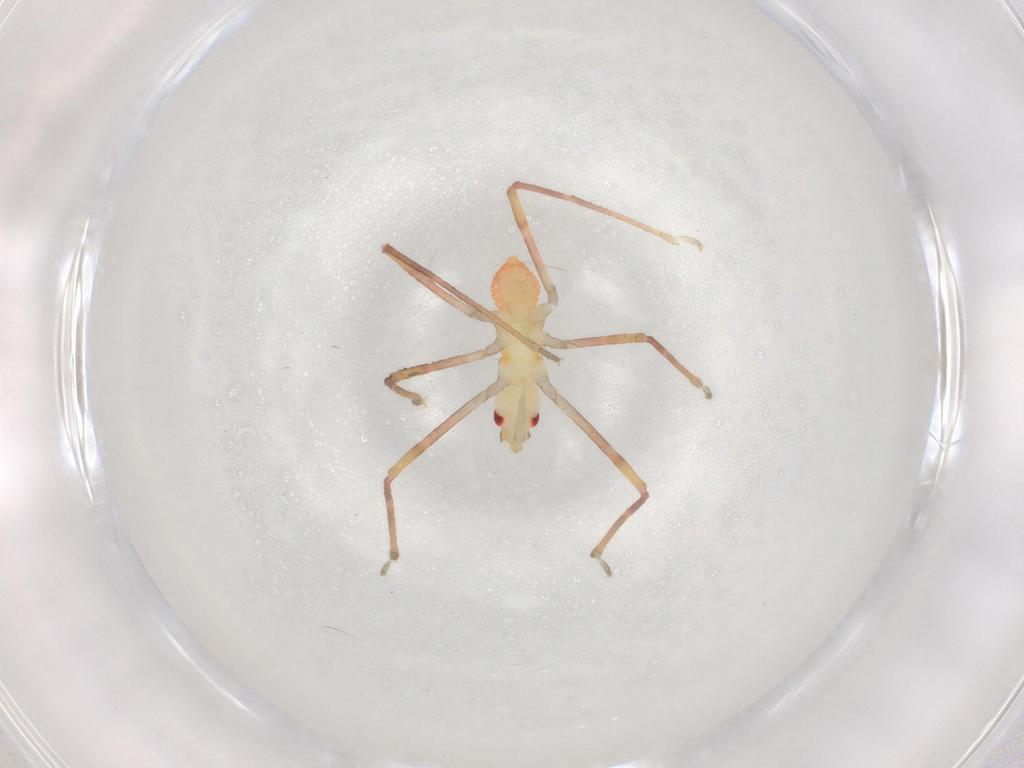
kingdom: Animalia
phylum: Arthropoda
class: Insecta
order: Hemiptera
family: Reduviidae
